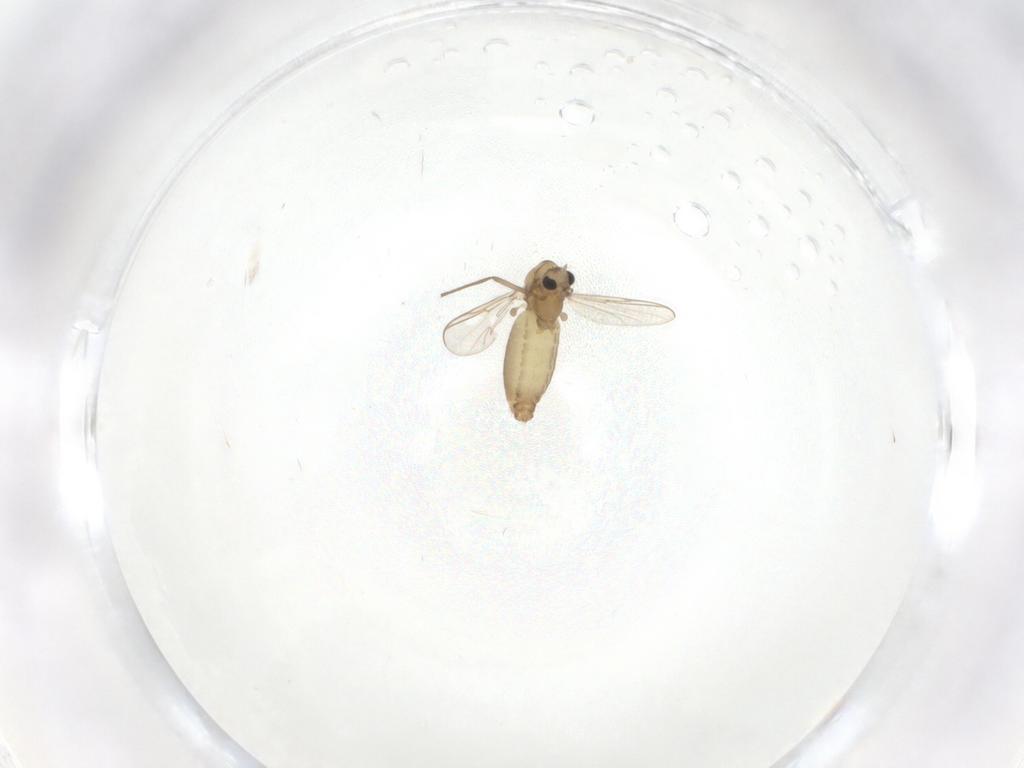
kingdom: Animalia
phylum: Arthropoda
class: Insecta
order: Diptera
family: Chironomidae
